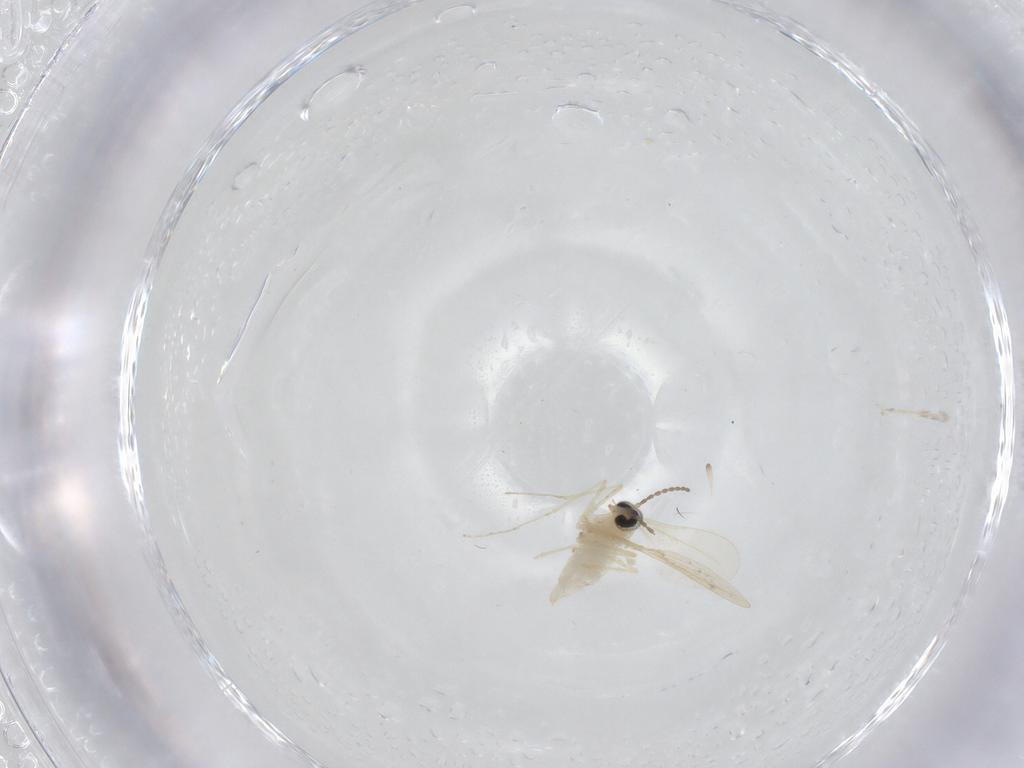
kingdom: Animalia
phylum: Arthropoda
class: Insecta
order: Diptera
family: Cecidomyiidae
